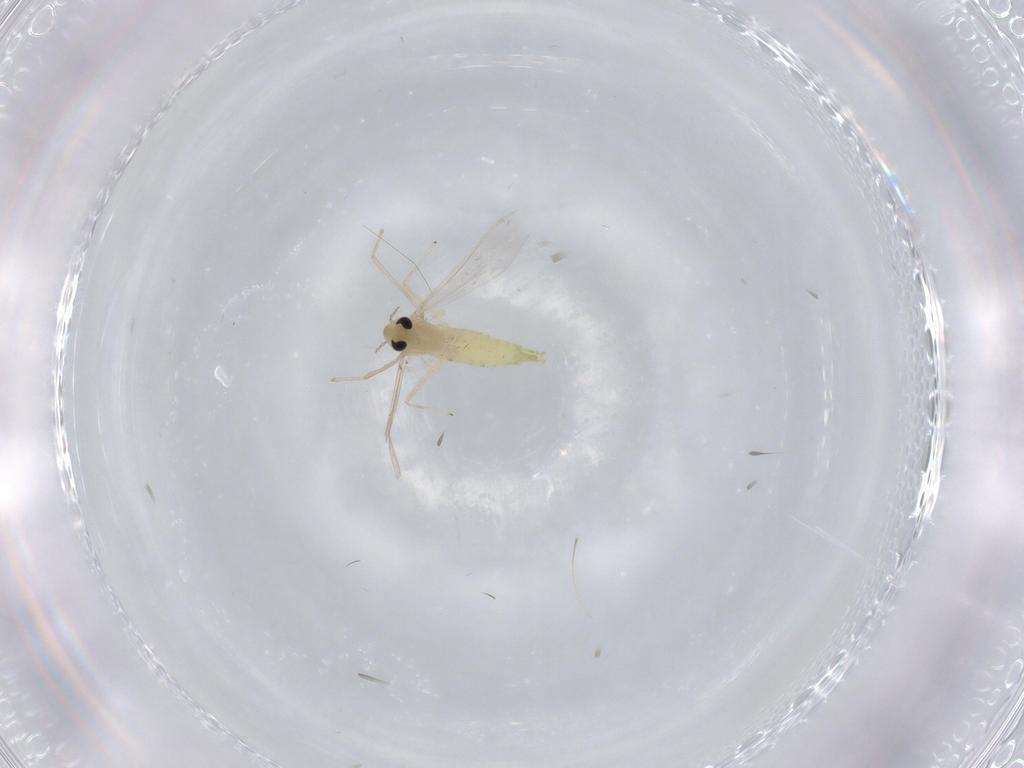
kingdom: Animalia
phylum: Arthropoda
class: Insecta
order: Diptera
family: Chironomidae
